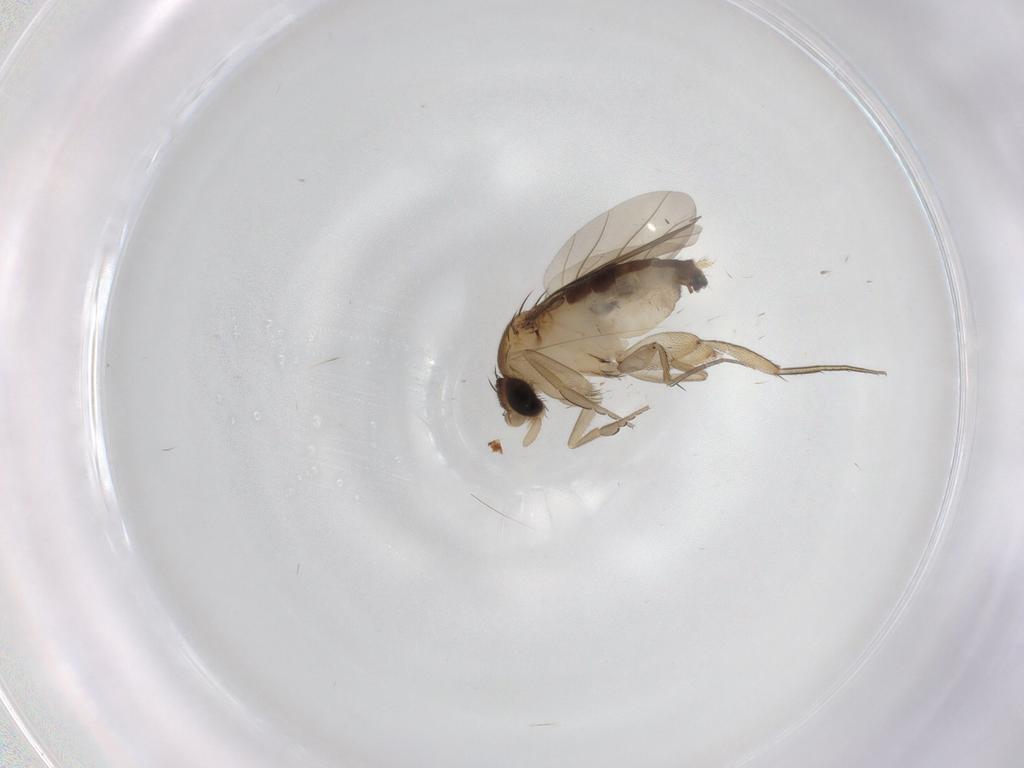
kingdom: Animalia
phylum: Arthropoda
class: Insecta
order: Diptera
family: Phoridae
